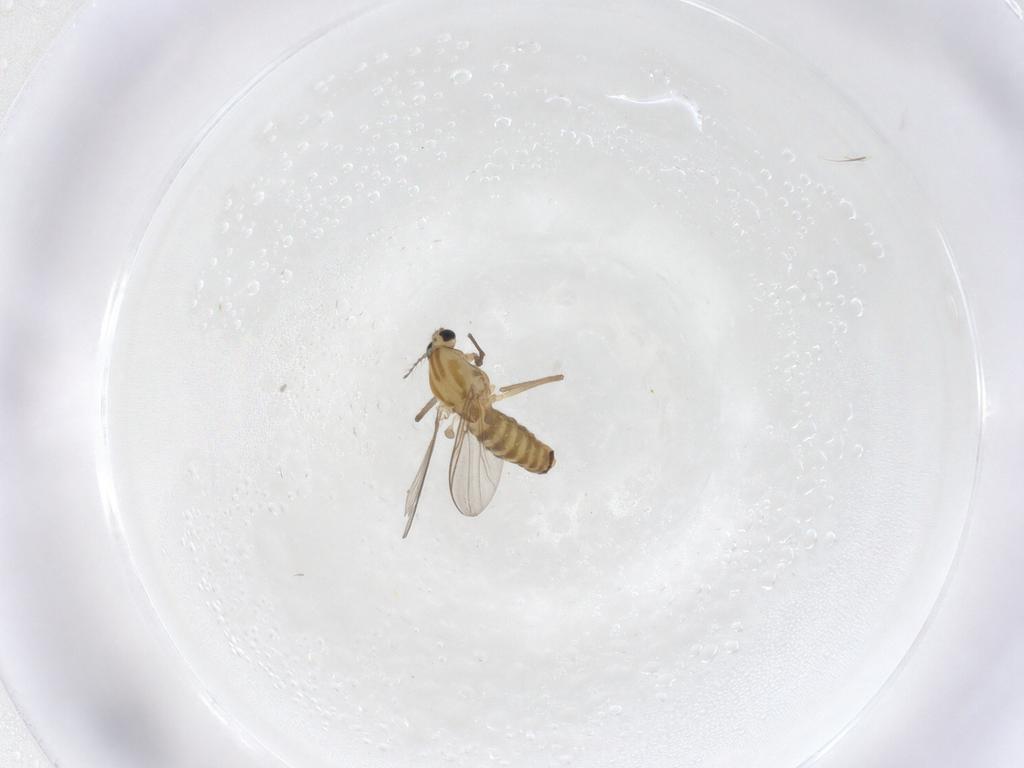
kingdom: Animalia
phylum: Arthropoda
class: Insecta
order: Diptera
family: Chironomidae
